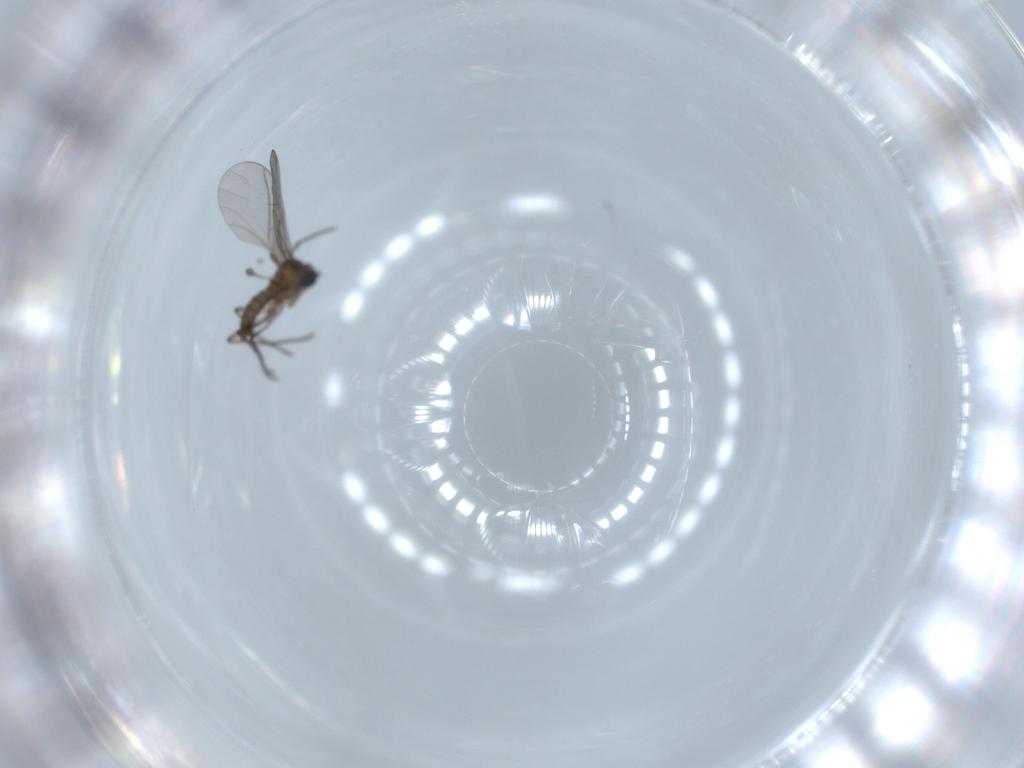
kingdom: Animalia
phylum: Arthropoda
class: Insecta
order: Diptera
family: Sciaridae
